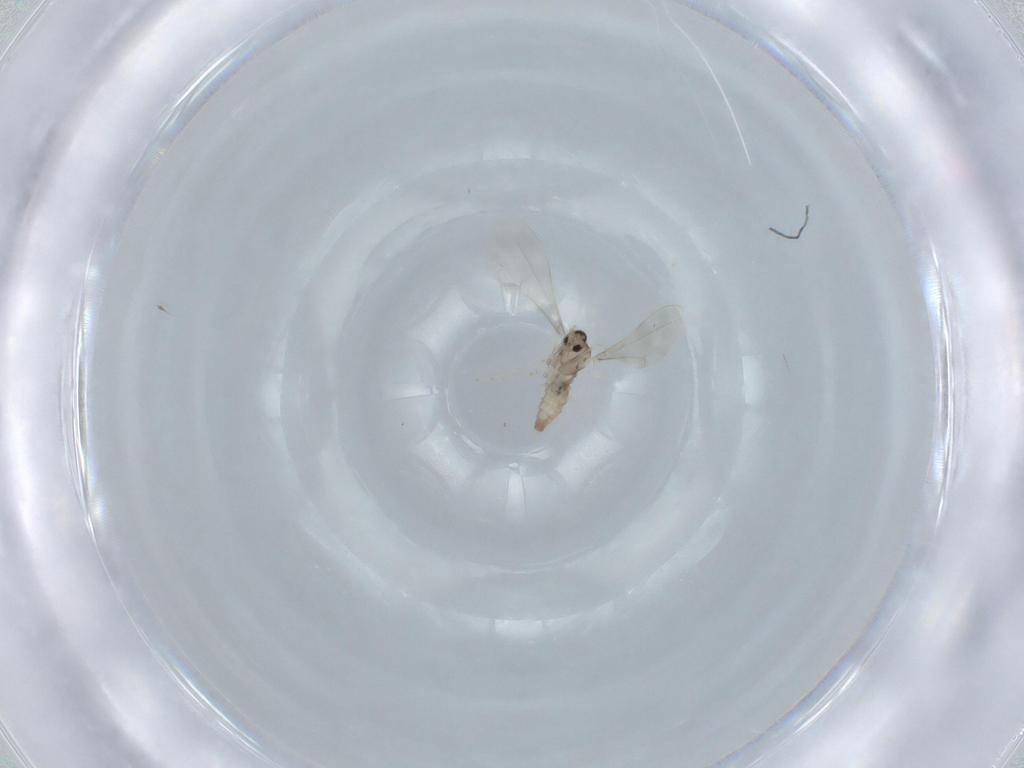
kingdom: Animalia
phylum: Arthropoda
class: Insecta
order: Diptera
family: Cecidomyiidae
